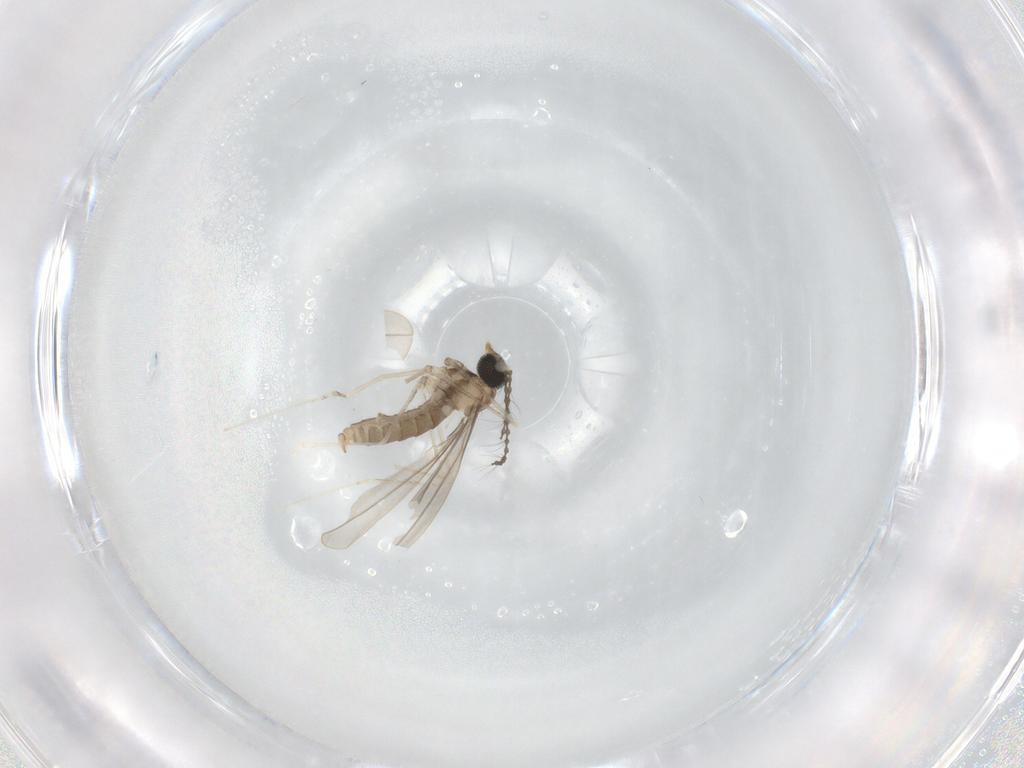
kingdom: Animalia
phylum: Arthropoda
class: Insecta
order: Diptera
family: Cecidomyiidae
